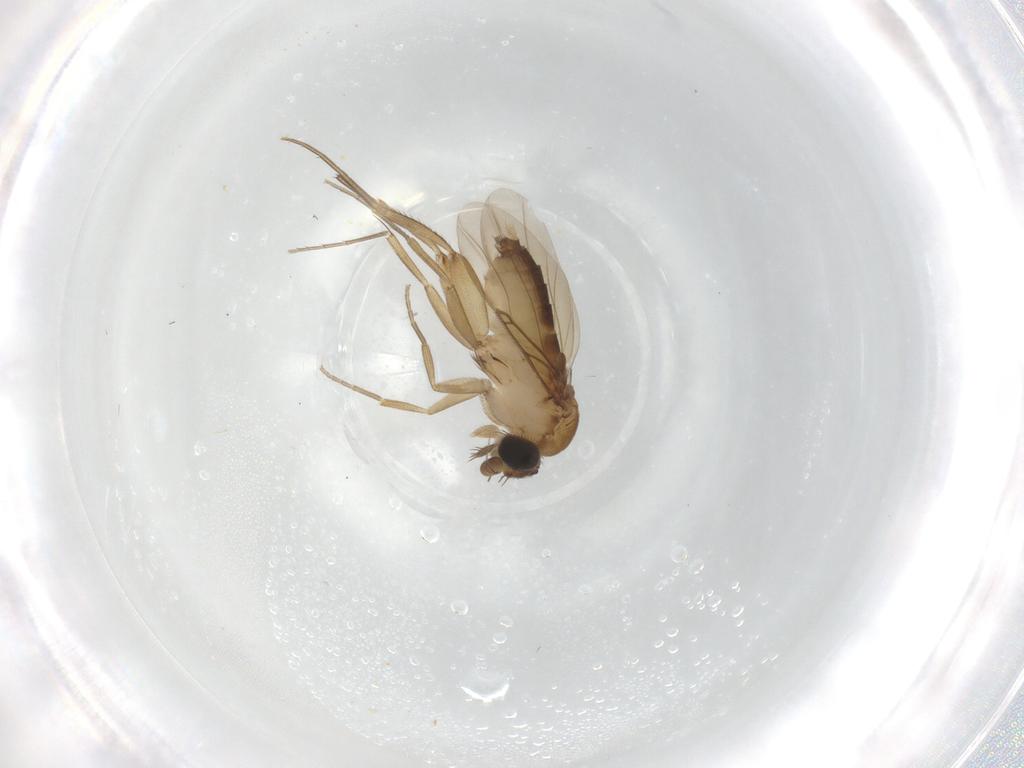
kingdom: Animalia
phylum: Arthropoda
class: Insecta
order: Diptera
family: Phoridae
